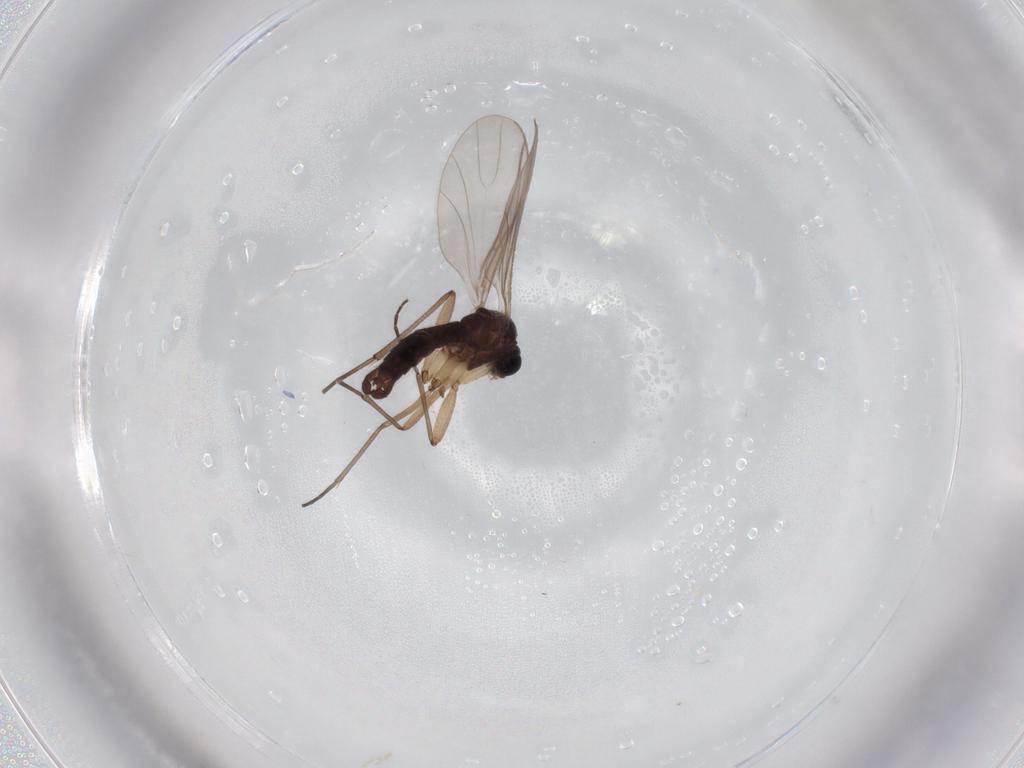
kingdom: Animalia
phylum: Arthropoda
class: Insecta
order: Diptera
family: Sciaridae
